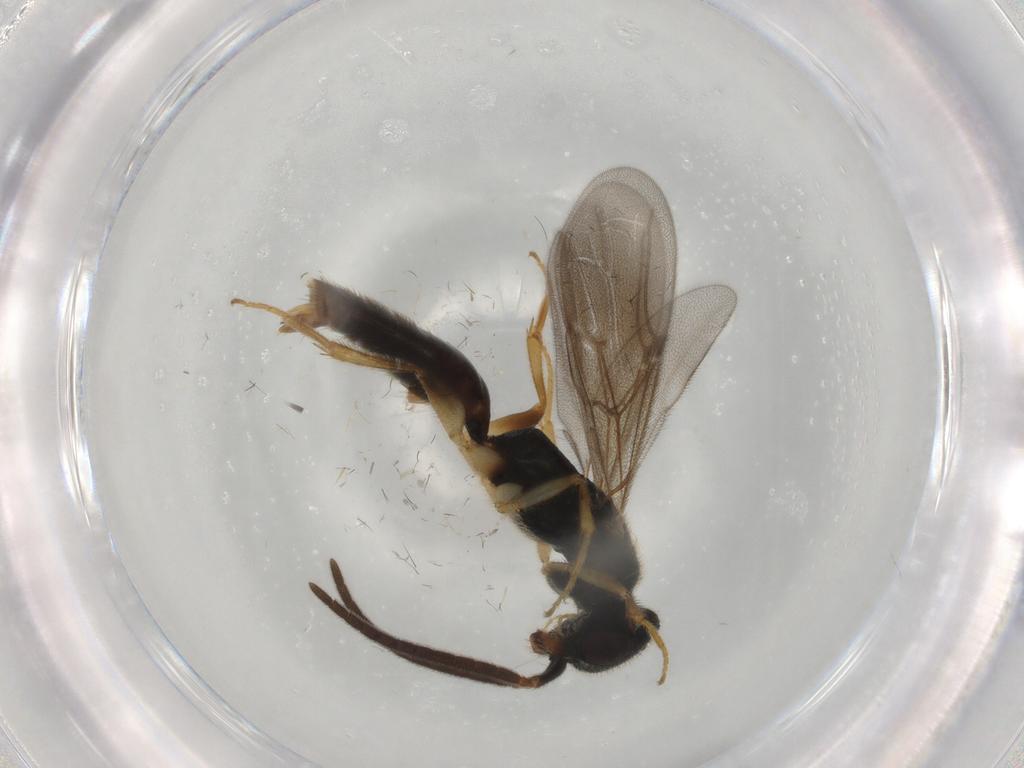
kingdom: Animalia
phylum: Arthropoda
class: Insecta
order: Hymenoptera
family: Bethylidae
